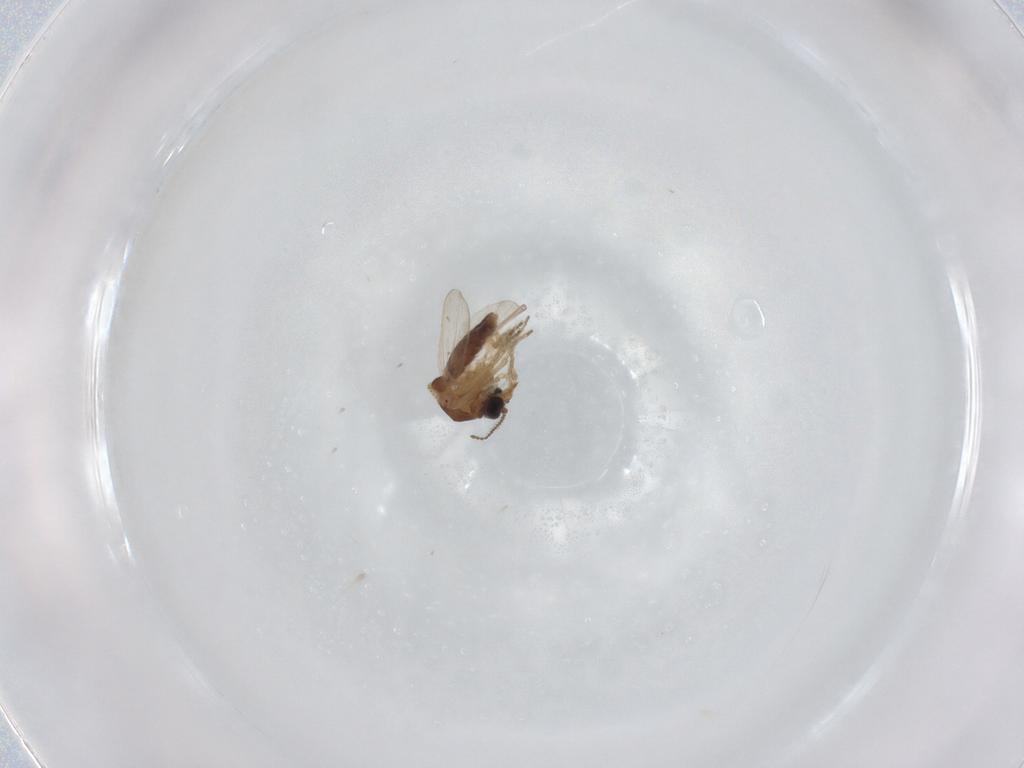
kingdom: Animalia
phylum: Arthropoda
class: Insecta
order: Diptera
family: Ceratopogonidae
